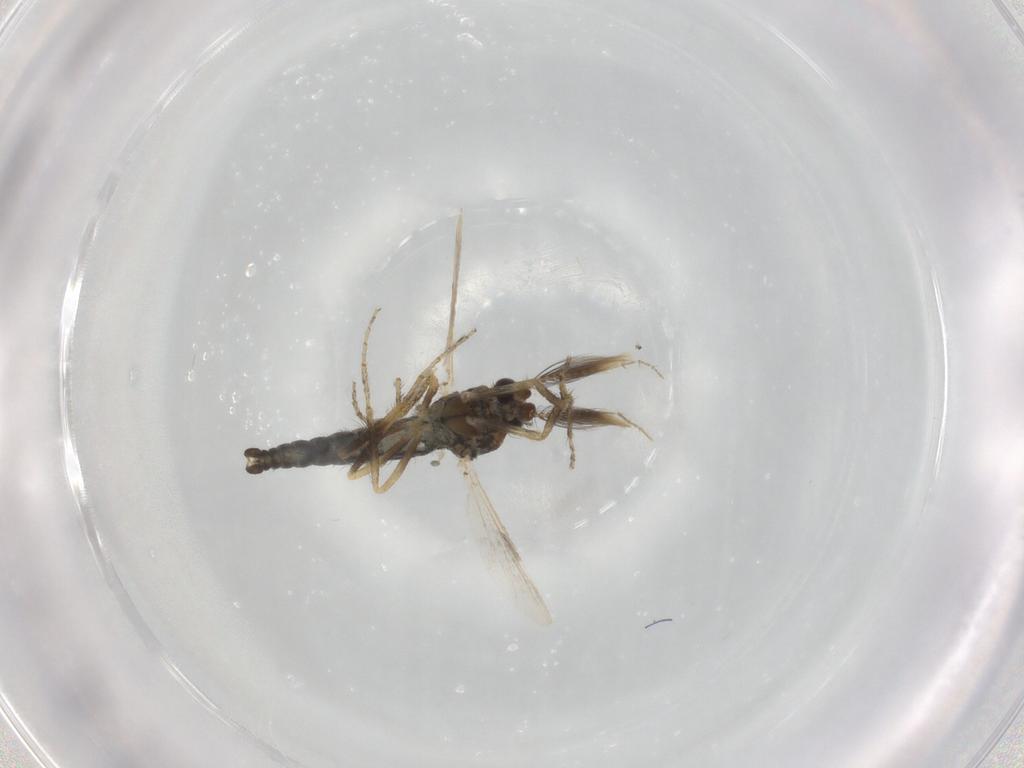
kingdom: Animalia
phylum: Arthropoda
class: Insecta
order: Diptera
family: Ceratopogonidae
